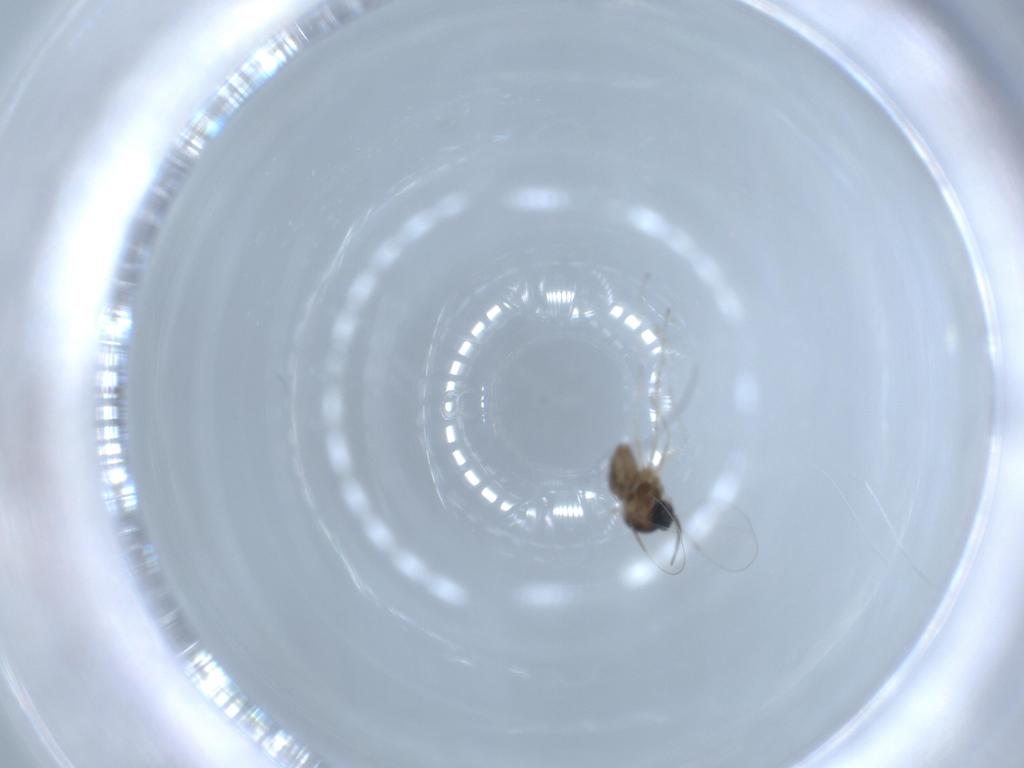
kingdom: Animalia
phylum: Arthropoda
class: Insecta
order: Diptera
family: Cecidomyiidae
